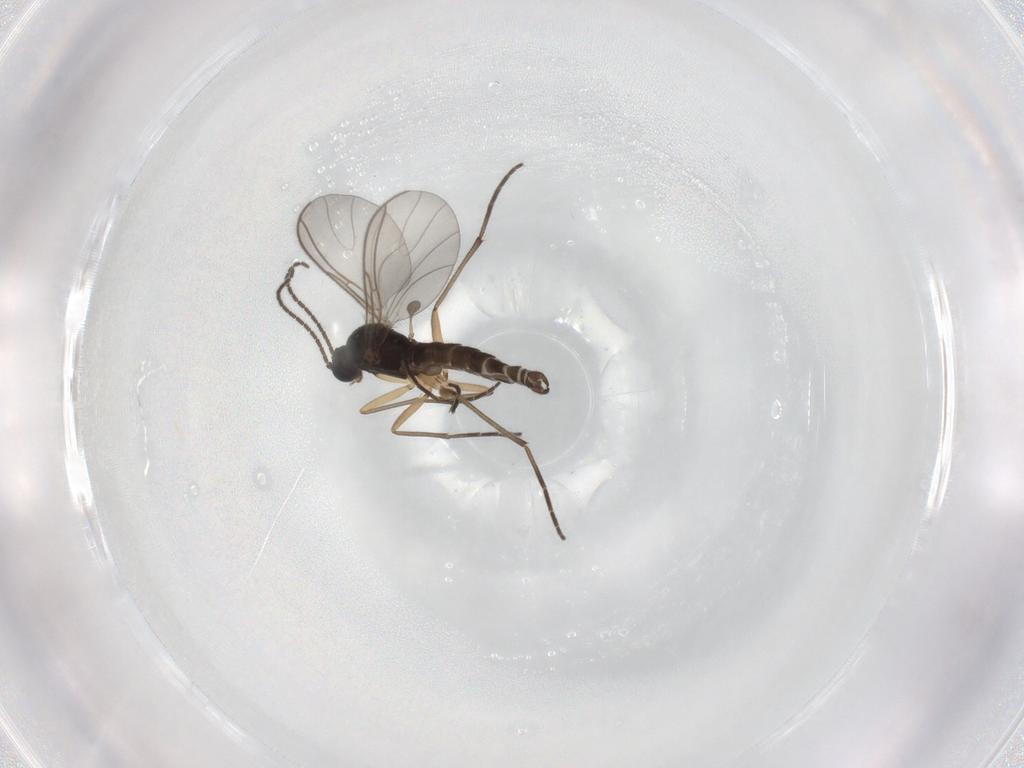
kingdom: Animalia
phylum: Arthropoda
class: Insecta
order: Diptera
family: Sciaridae
